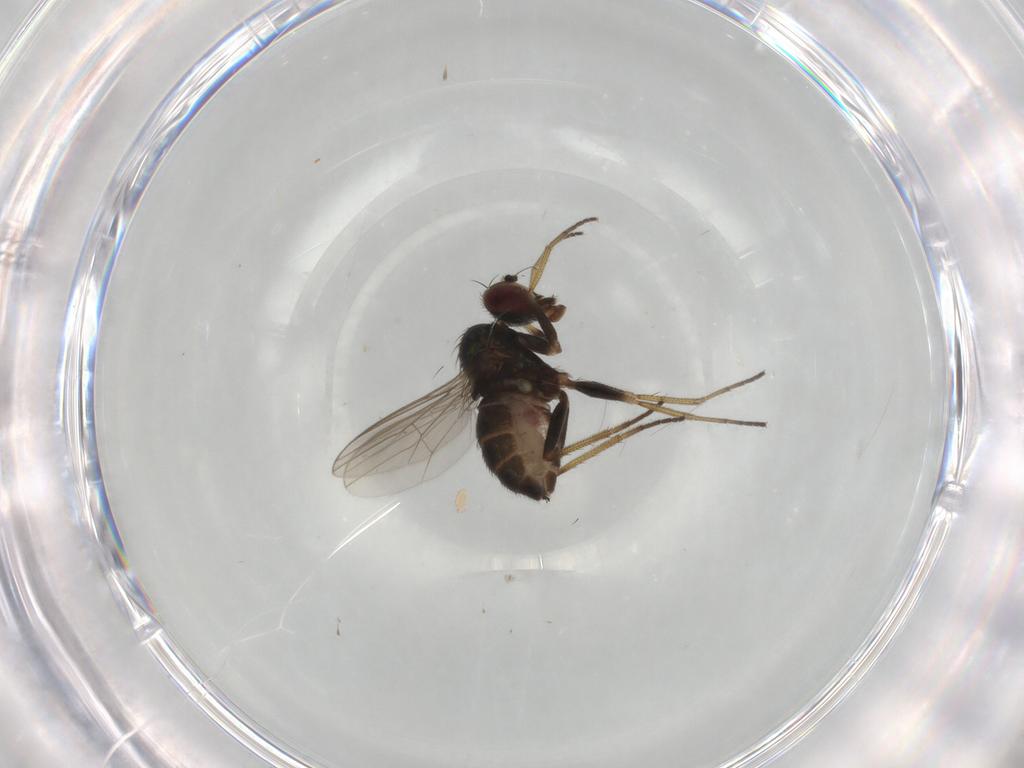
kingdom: Animalia
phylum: Arthropoda
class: Insecta
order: Diptera
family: Dolichopodidae
